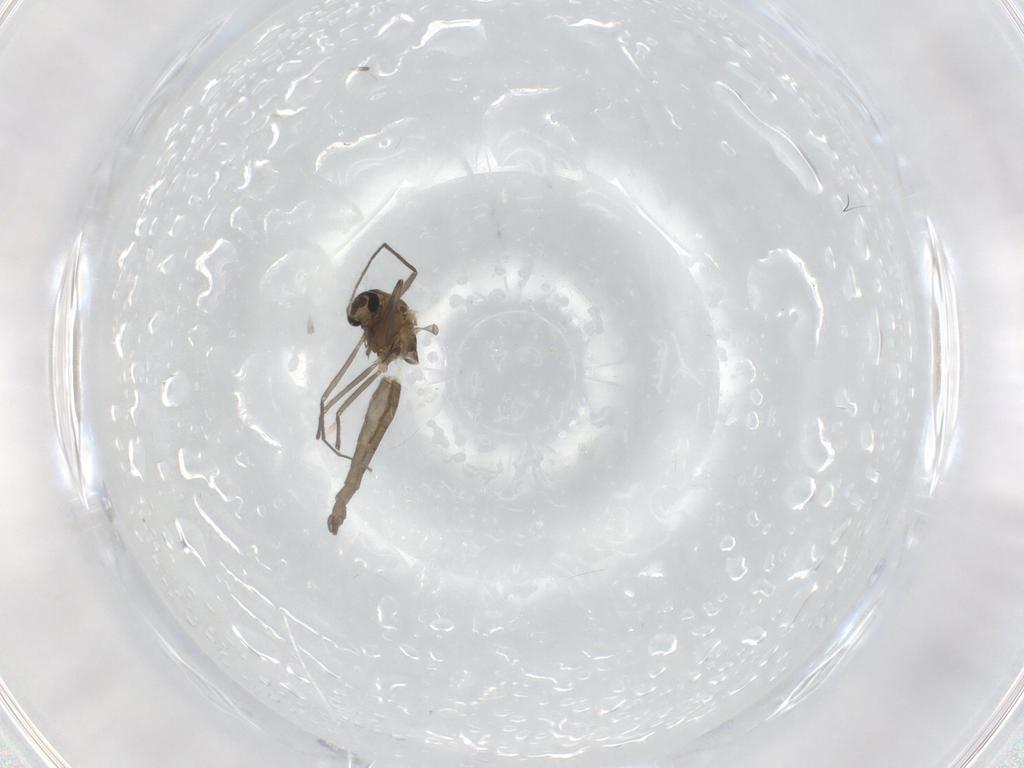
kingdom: Animalia
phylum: Arthropoda
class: Insecta
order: Diptera
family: Chironomidae
